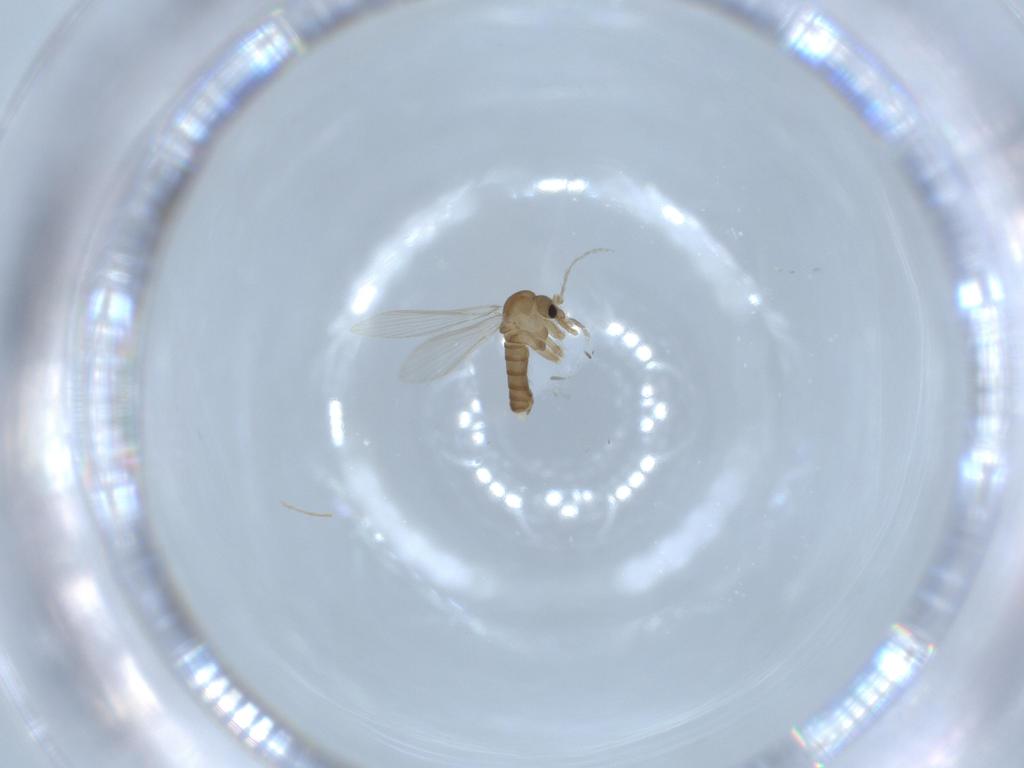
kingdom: Animalia
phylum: Arthropoda
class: Insecta
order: Diptera
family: Psychodidae
